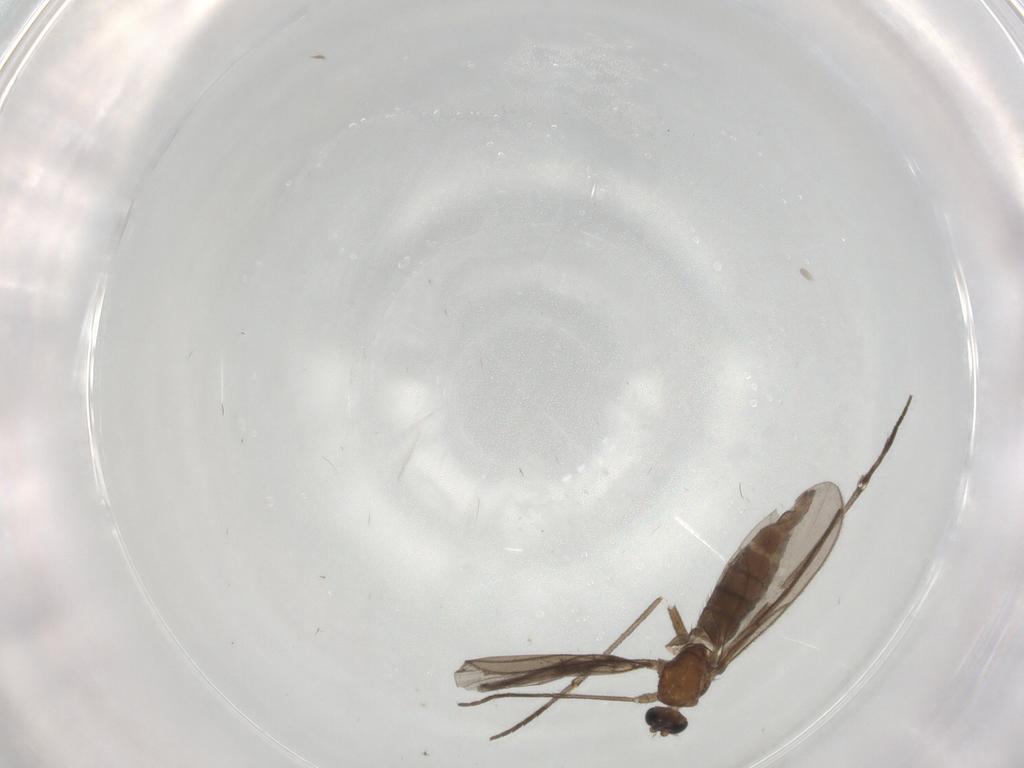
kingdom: Animalia
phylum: Arthropoda
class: Insecta
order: Diptera
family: Sciaridae
